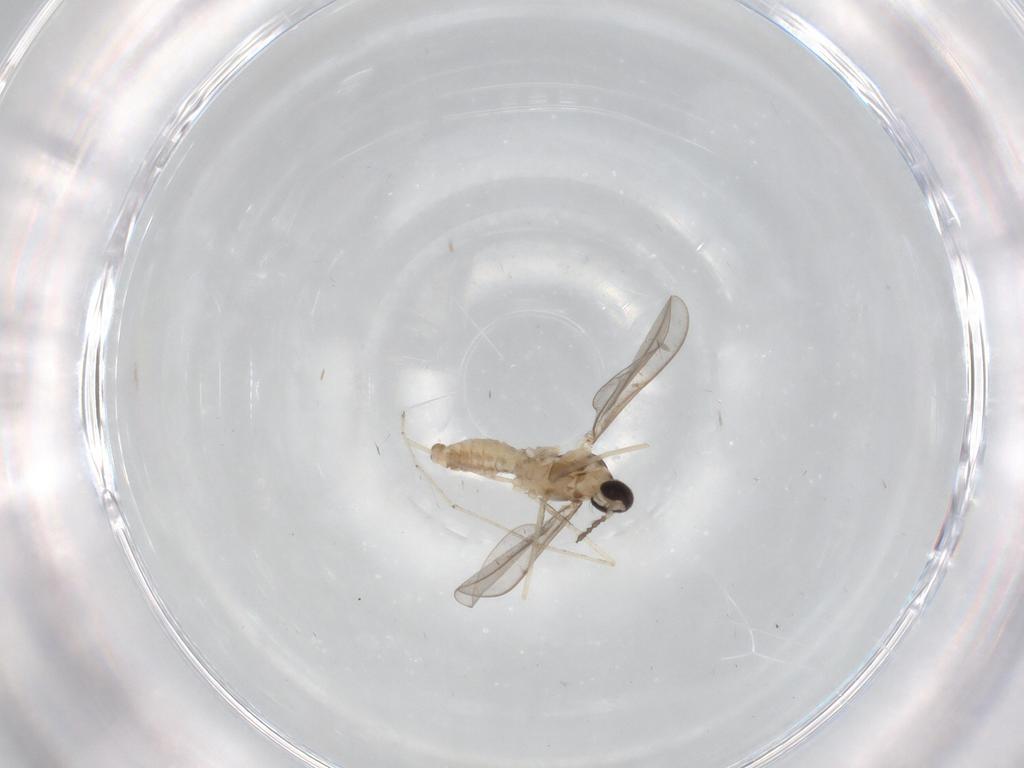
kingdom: Animalia
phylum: Arthropoda
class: Insecta
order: Diptera
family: Cecidomyiidae
